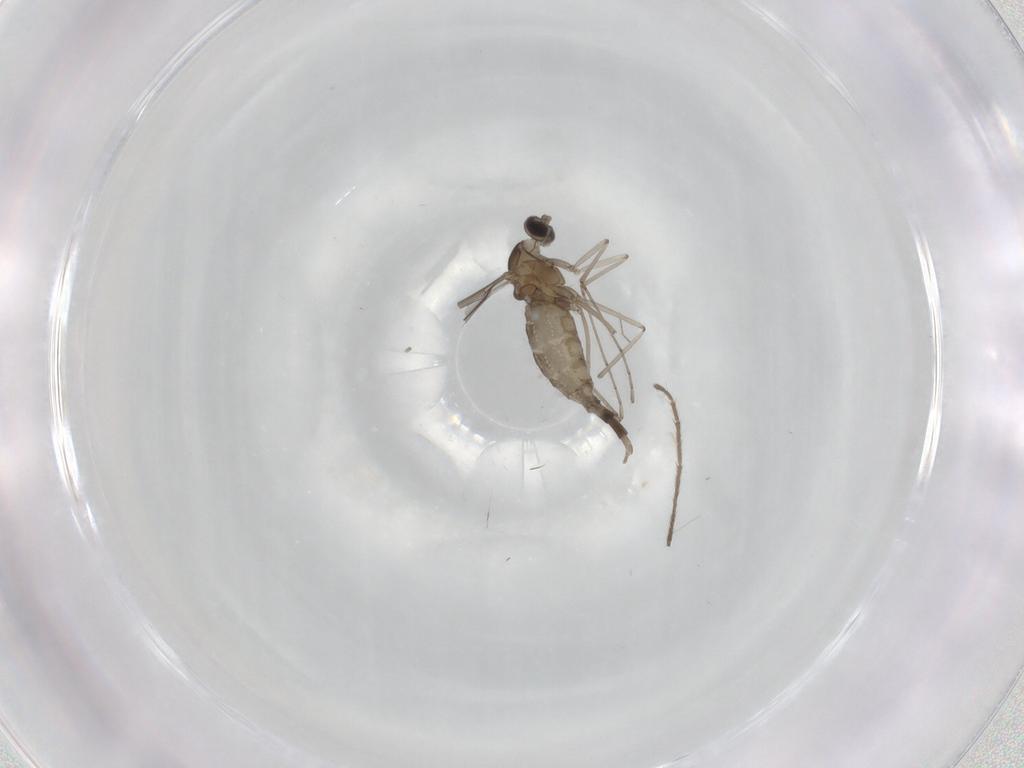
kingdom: Animalia
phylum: Arthropoda
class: Insecta
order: Diptera
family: Cecidomyiidae
